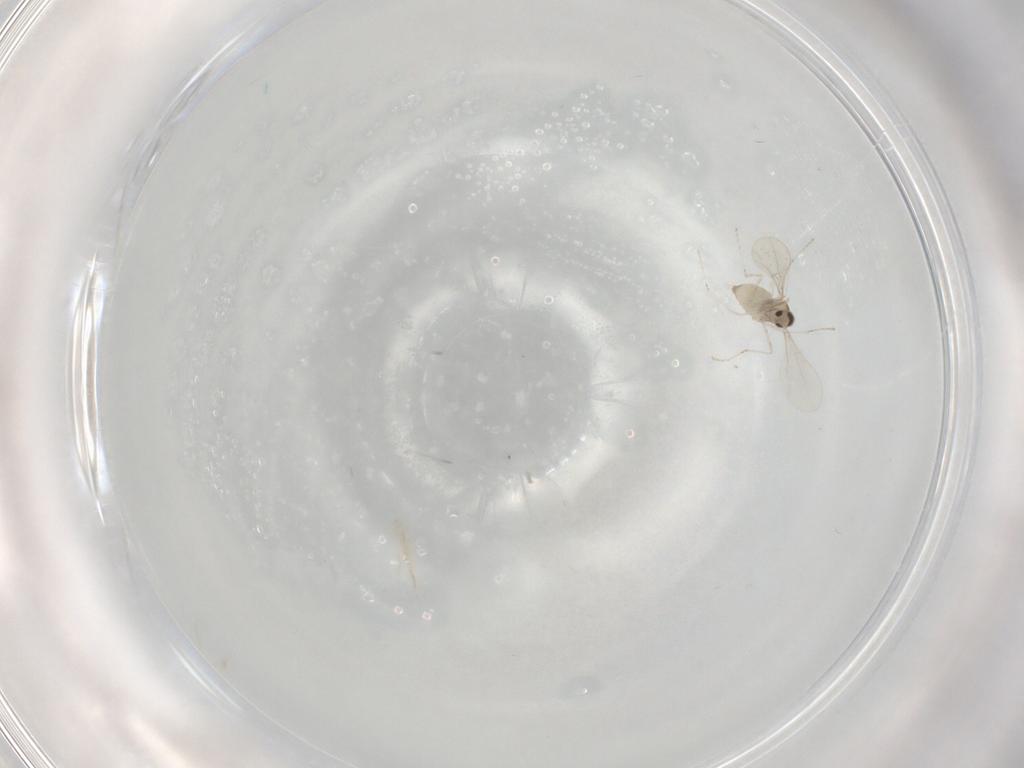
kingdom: Animalia
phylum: Arthropoda
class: Insecta
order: Diptera
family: Cecidomyiidae
